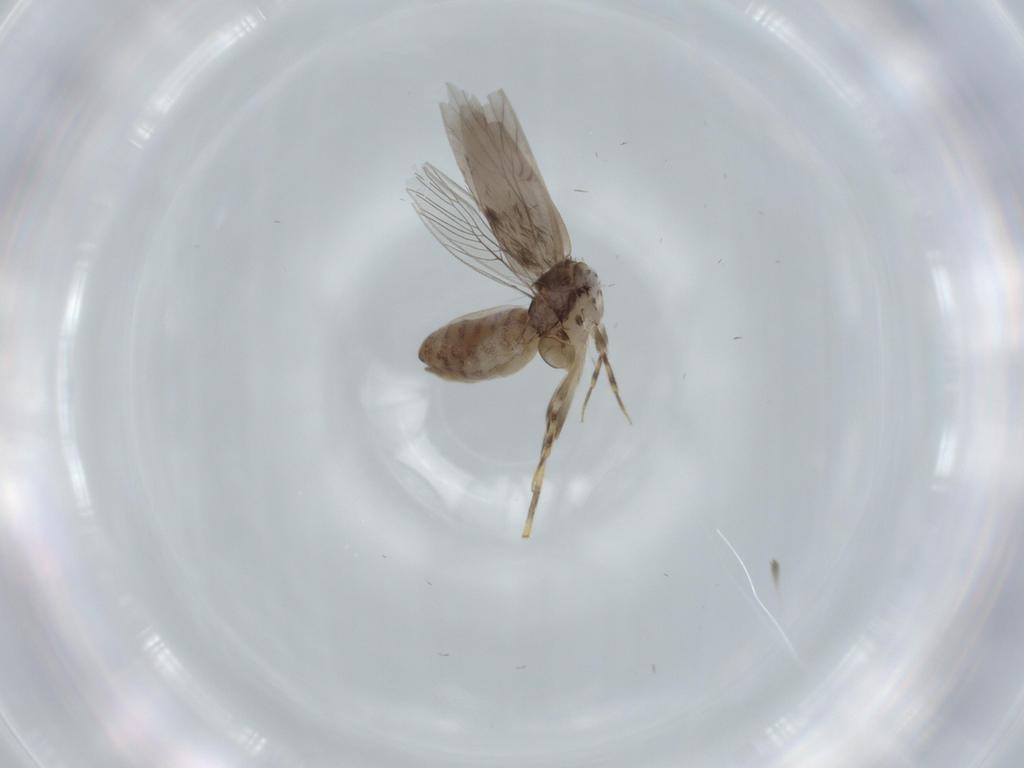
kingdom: Animalia
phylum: Arthropoda
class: Insecta
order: Psocodea
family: Lepidopsocidae
